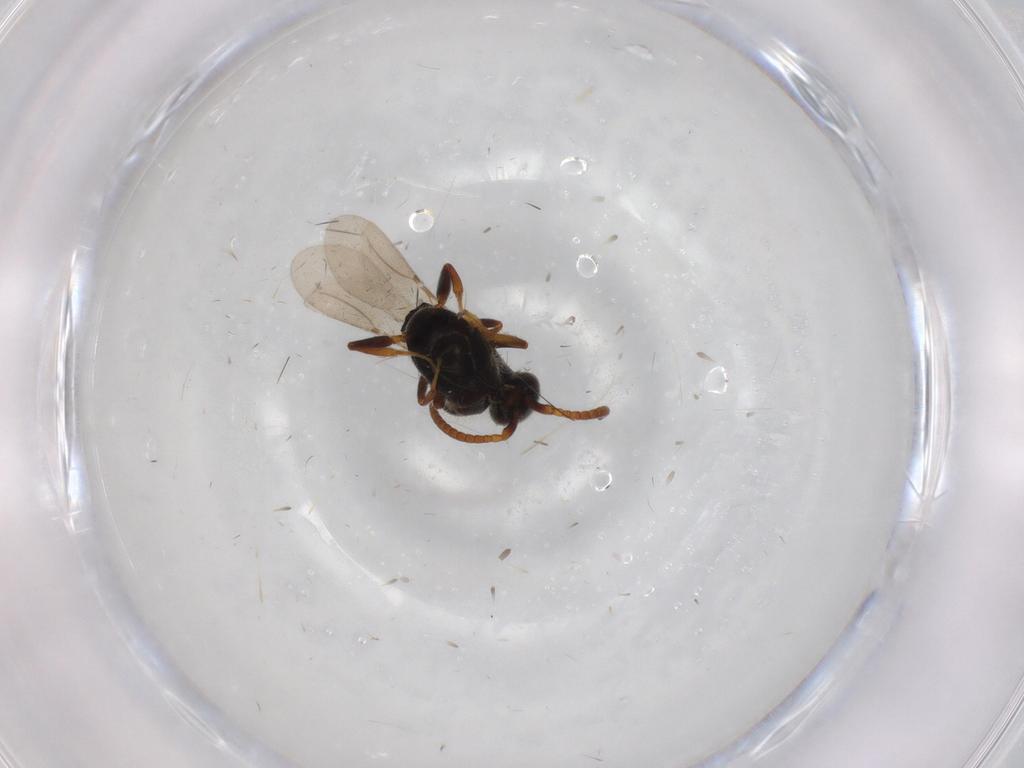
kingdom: Animalia
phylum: Arthropoda
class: Insecta
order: Hymenoptera
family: Bethylidae
